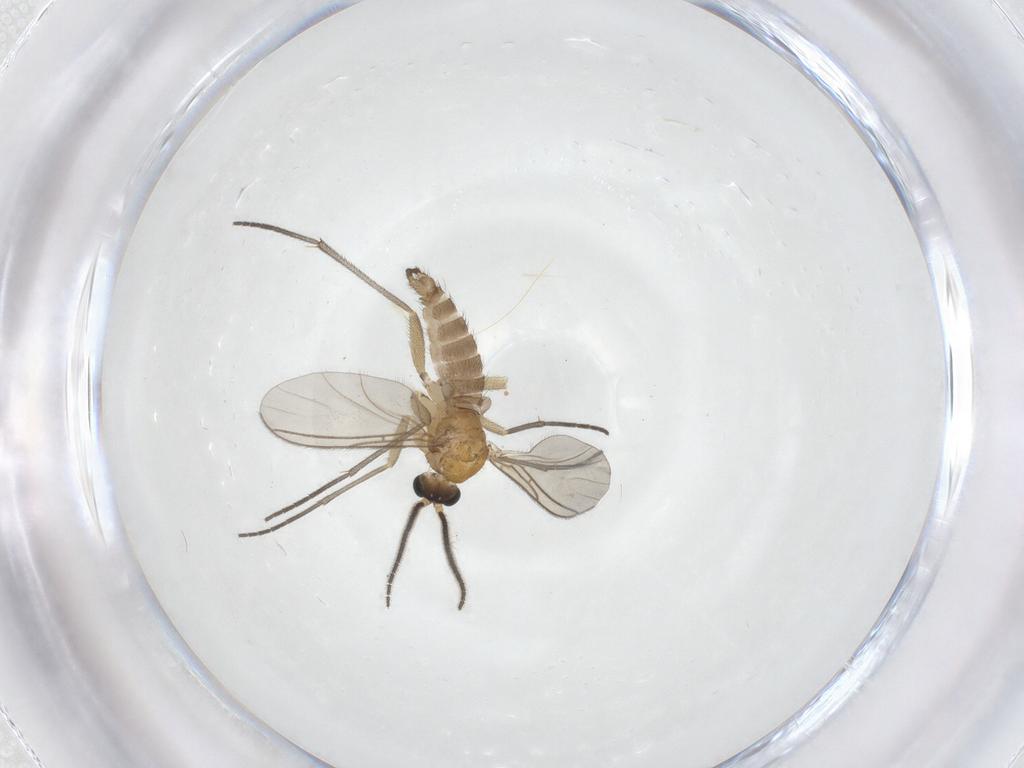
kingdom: Animalia
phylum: Arthropoda
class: Insecta
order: Diptera
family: Sciaridae
